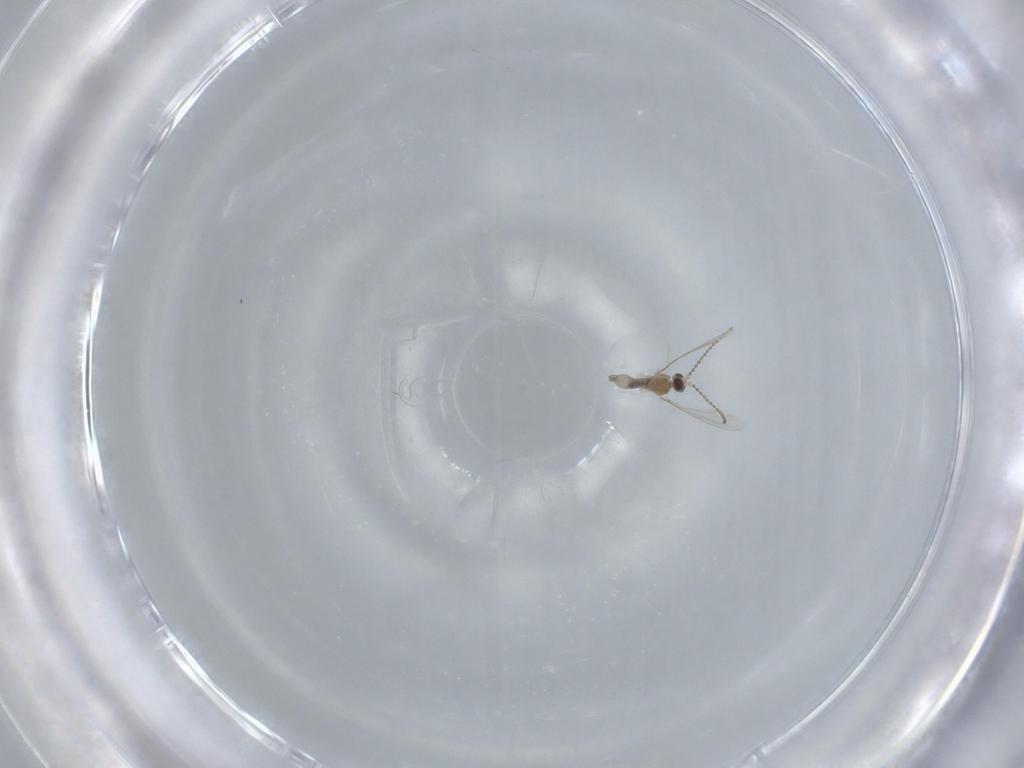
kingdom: Animalia
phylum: Arthropoda
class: Insecta
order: Diptera
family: Cecidomyiidae
